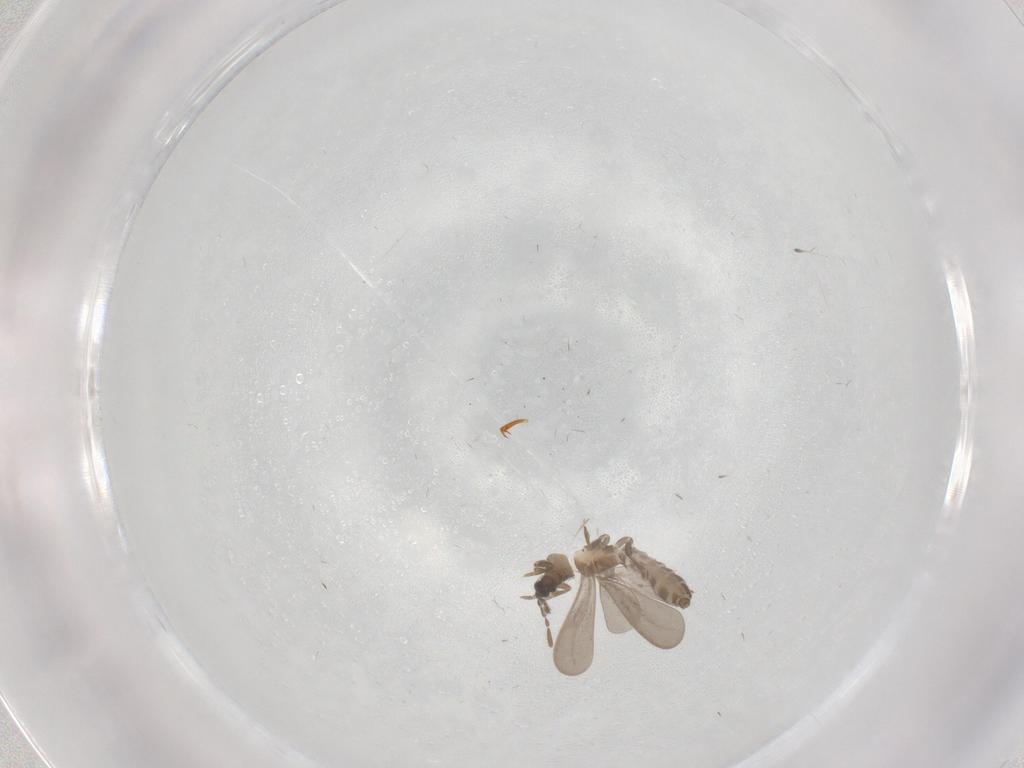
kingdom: Animalia
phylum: Arthropoda
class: Insecta
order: Hemiptera
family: Enicocephalidae
